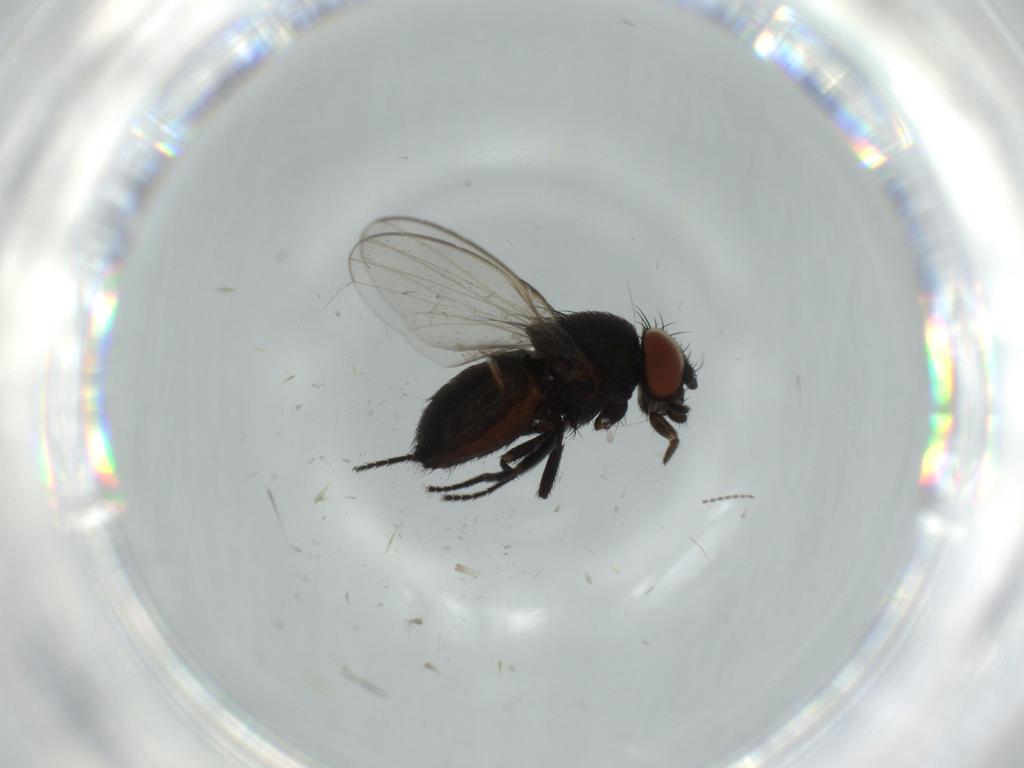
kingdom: Animalia
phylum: Arthropoda
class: Insecta
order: Diptera
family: Milichiidae
